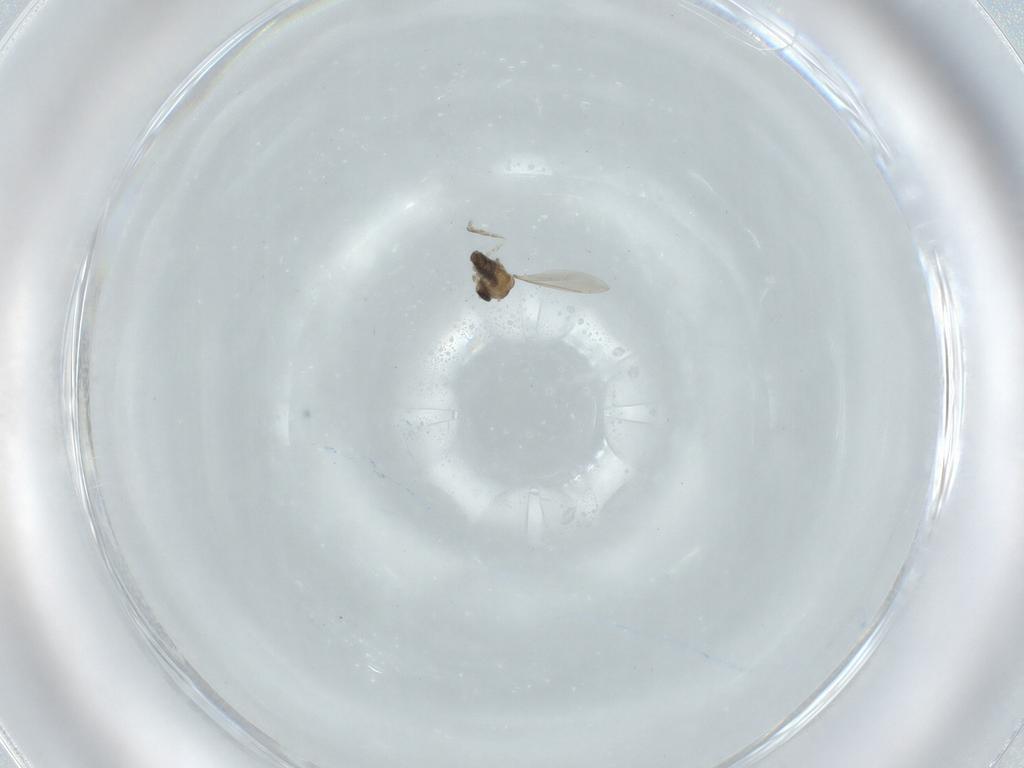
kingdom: Animalia
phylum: Arthropoda
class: Insecta
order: Diptera
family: Cecidomyiidae
